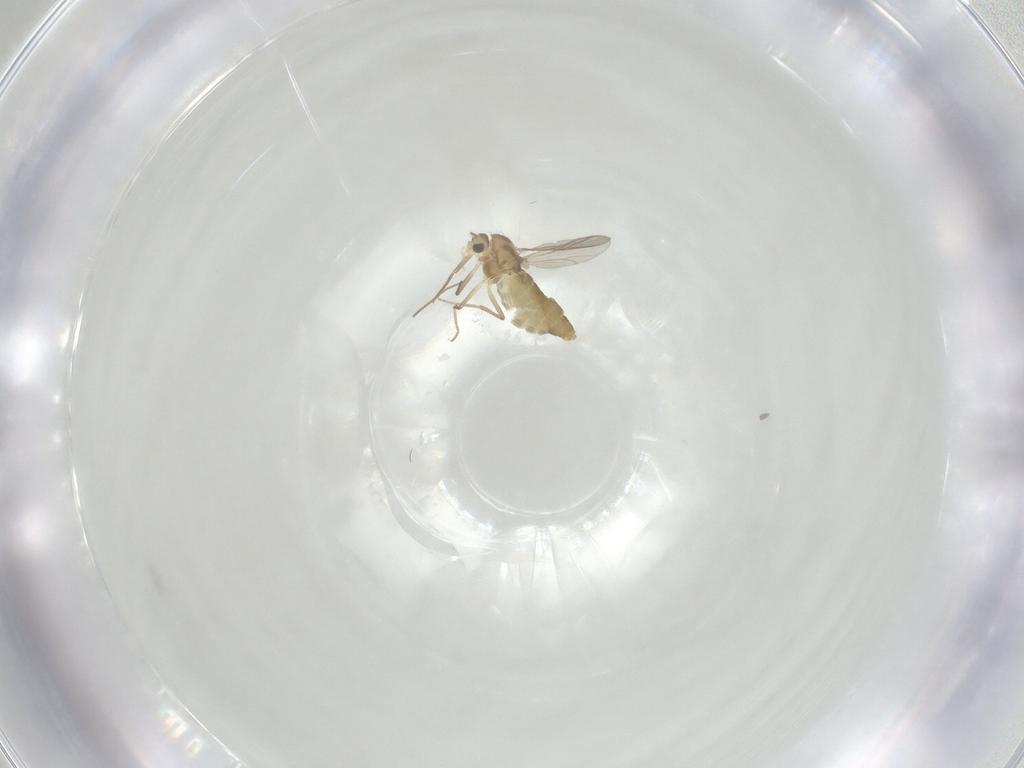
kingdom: Animalia
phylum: Arthropoda
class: Insecta
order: Diptera
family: Chironomidae
